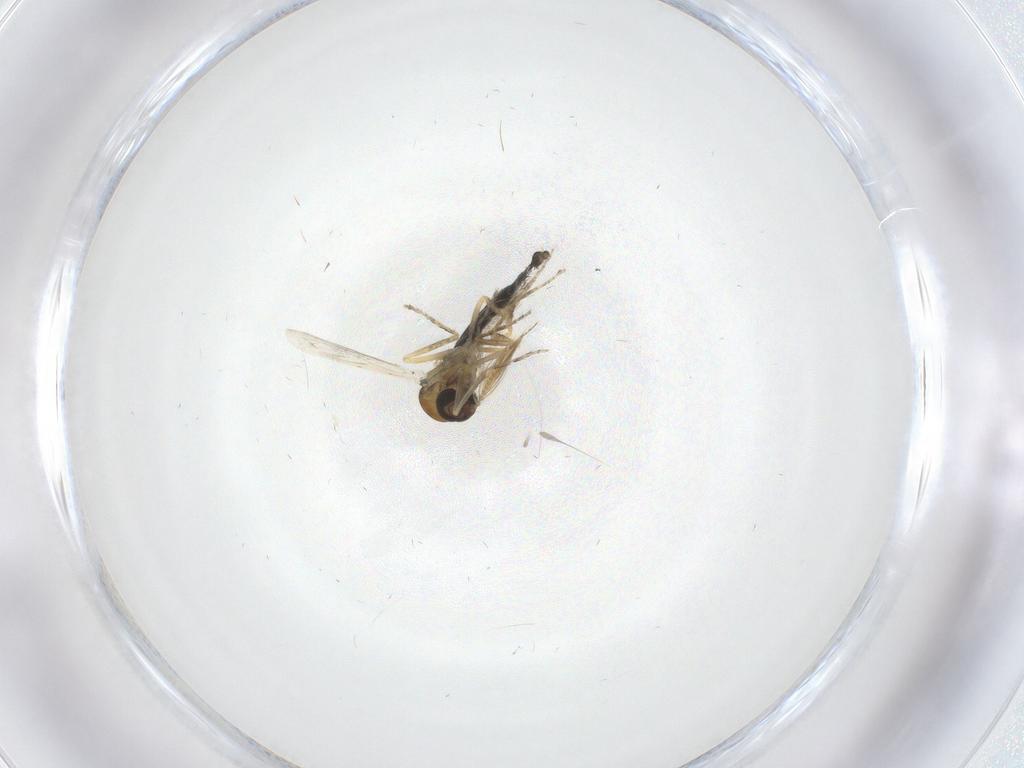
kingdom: Animalia
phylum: Arthropoda
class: Insecta
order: Diptera
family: Ceratopogonidae
